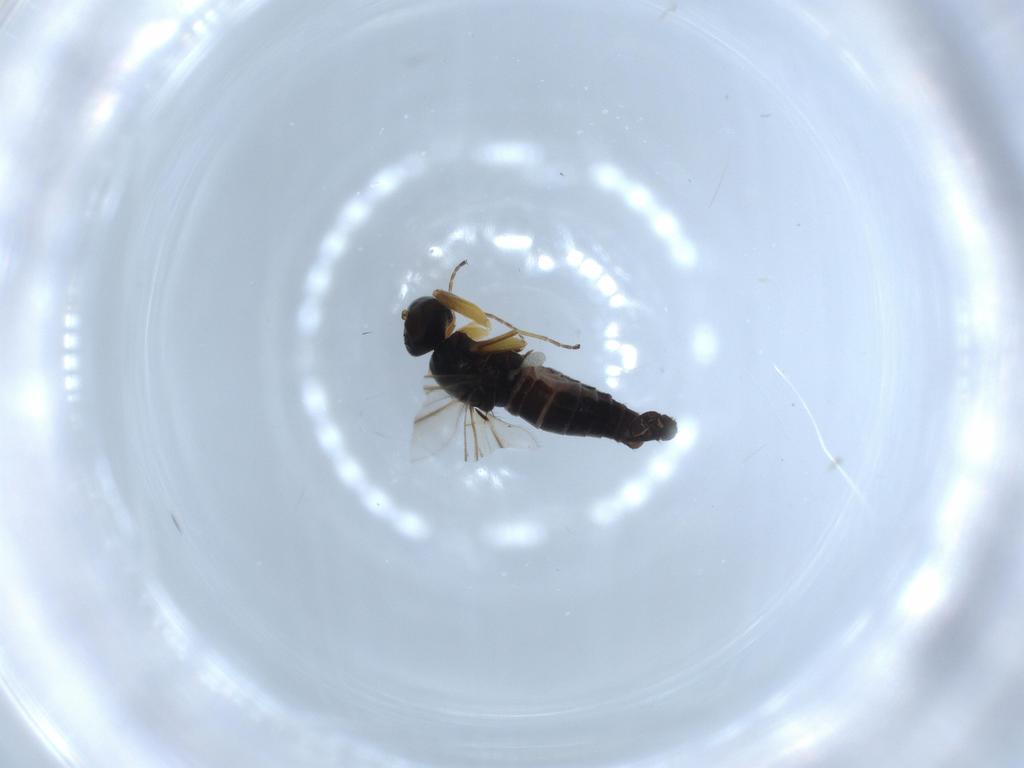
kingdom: Animalia
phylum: Arthropoda
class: Insecta
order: Diptera
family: Hybotidae
